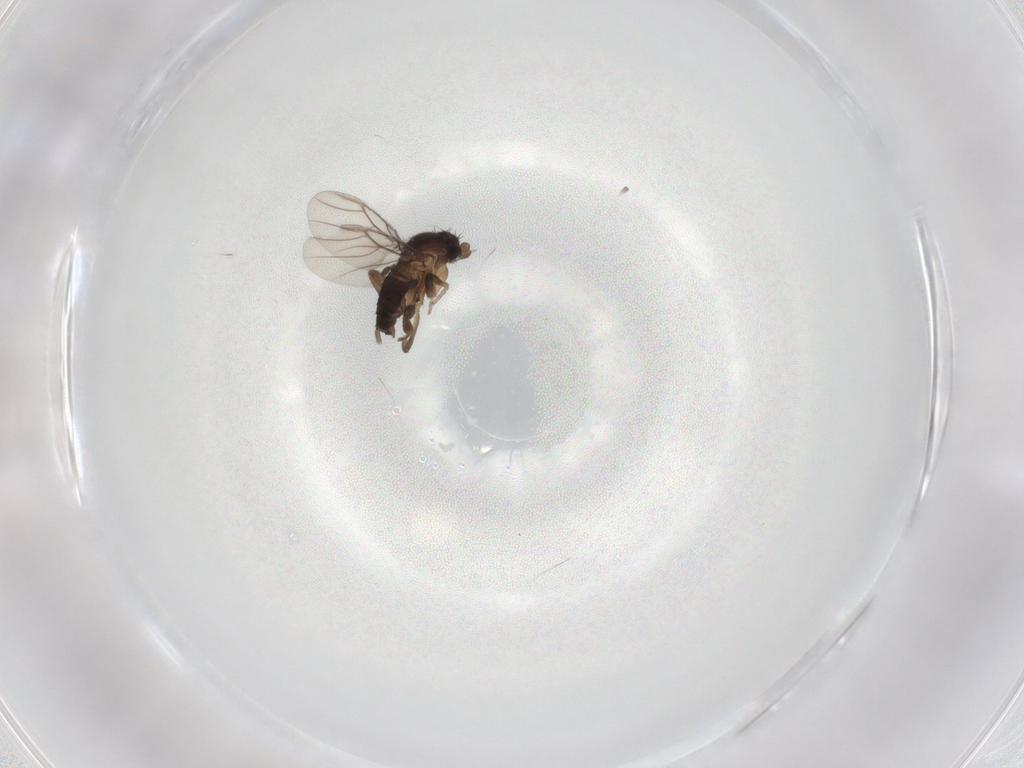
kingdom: Animalia
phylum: Arthropoda
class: Insecta
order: Diptera
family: Phoridae
